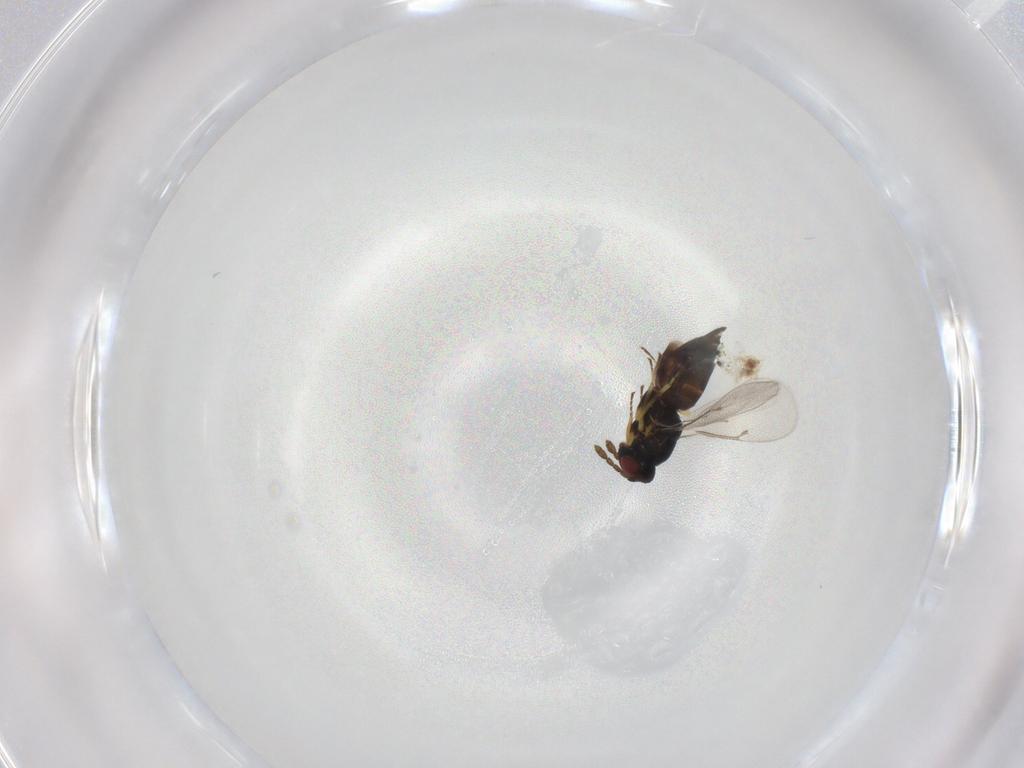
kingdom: Animalia
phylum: Arthropoda
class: Insecta
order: Hymenoptera
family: Eulophidae
